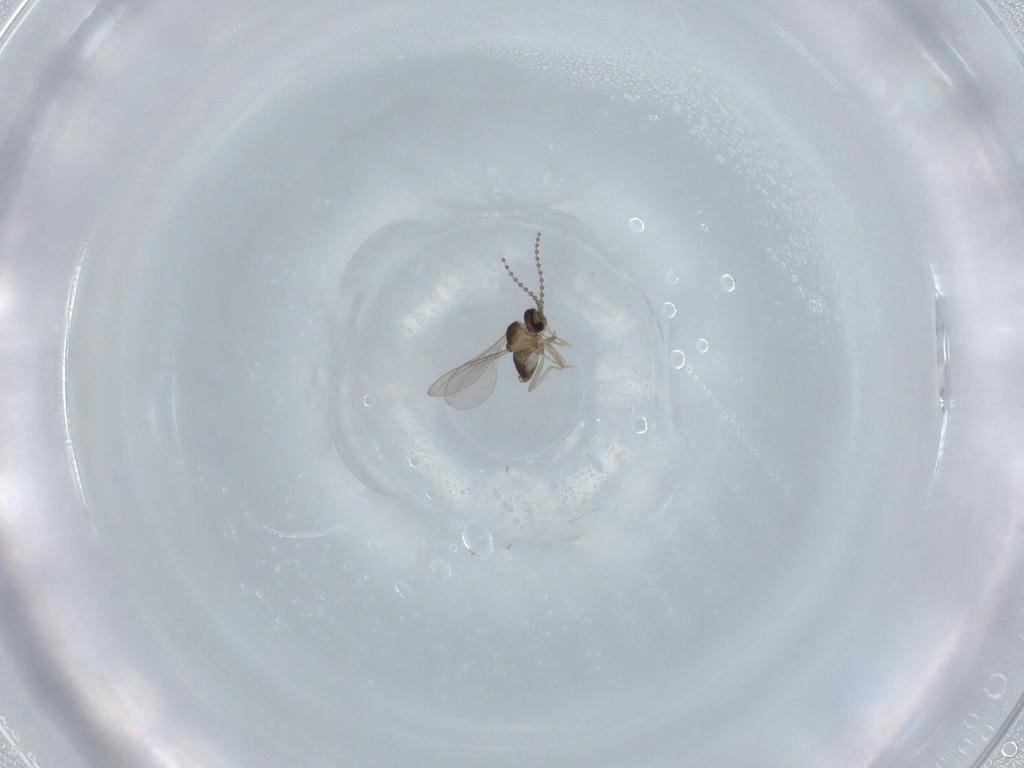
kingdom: Animalia
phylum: Arthropoda
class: Insecta
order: Diptera
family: Cecidomyiidae
